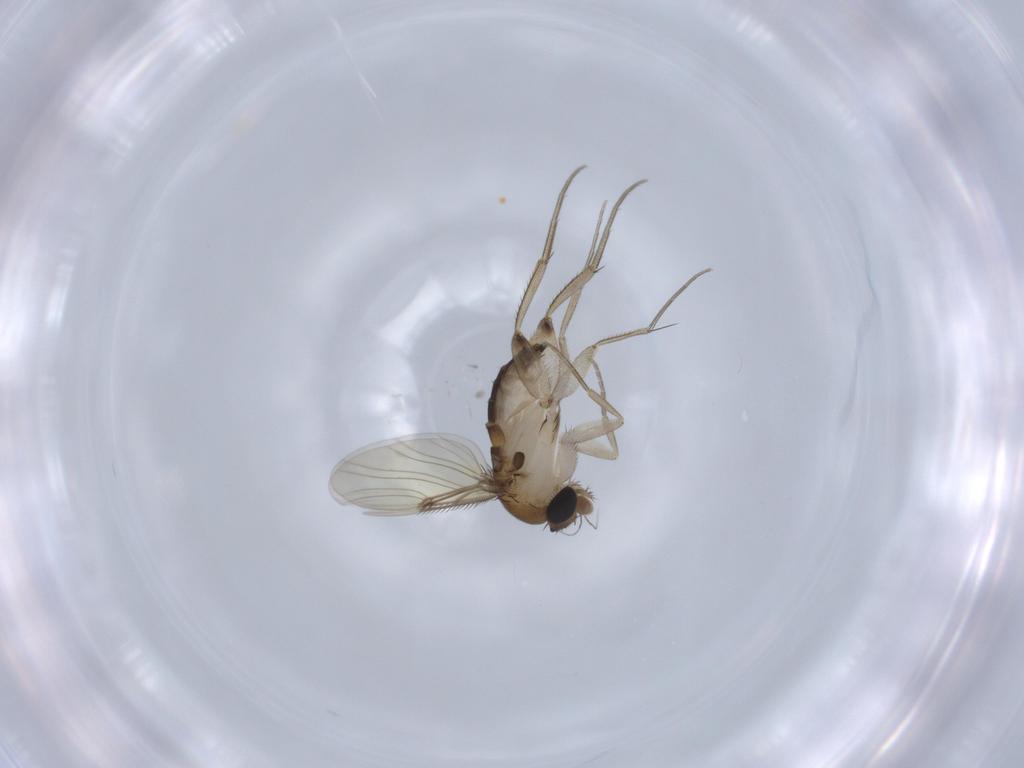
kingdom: Animalia
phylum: Arthropoda
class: Insecta
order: Diptera
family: Phoridae
